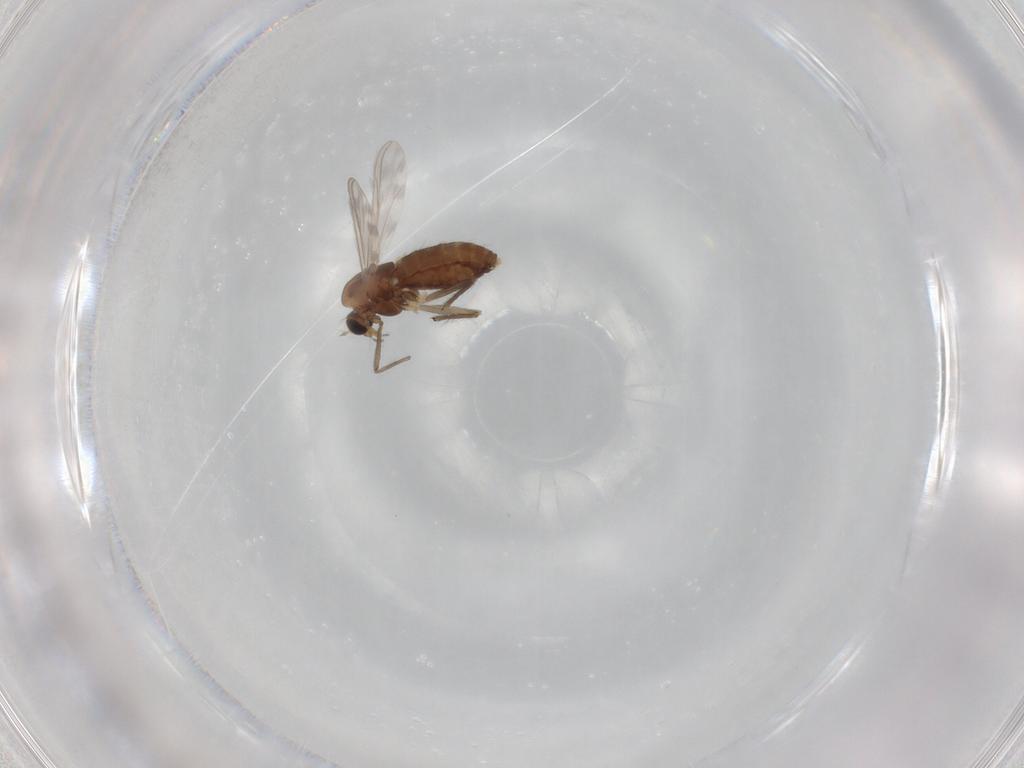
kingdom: Animalia
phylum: Arthropoda
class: Insecta
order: Diptera
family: Chironomidae
